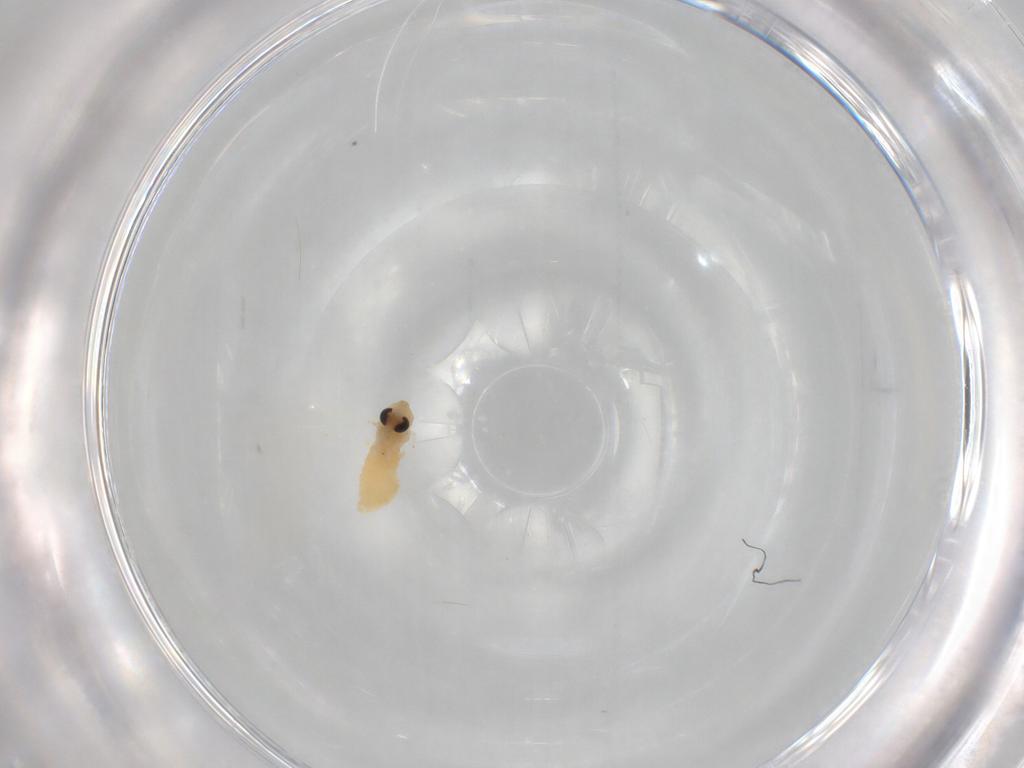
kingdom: Animalia
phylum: Arthropoda
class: Insecta
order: Diptera
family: Chironomidae
